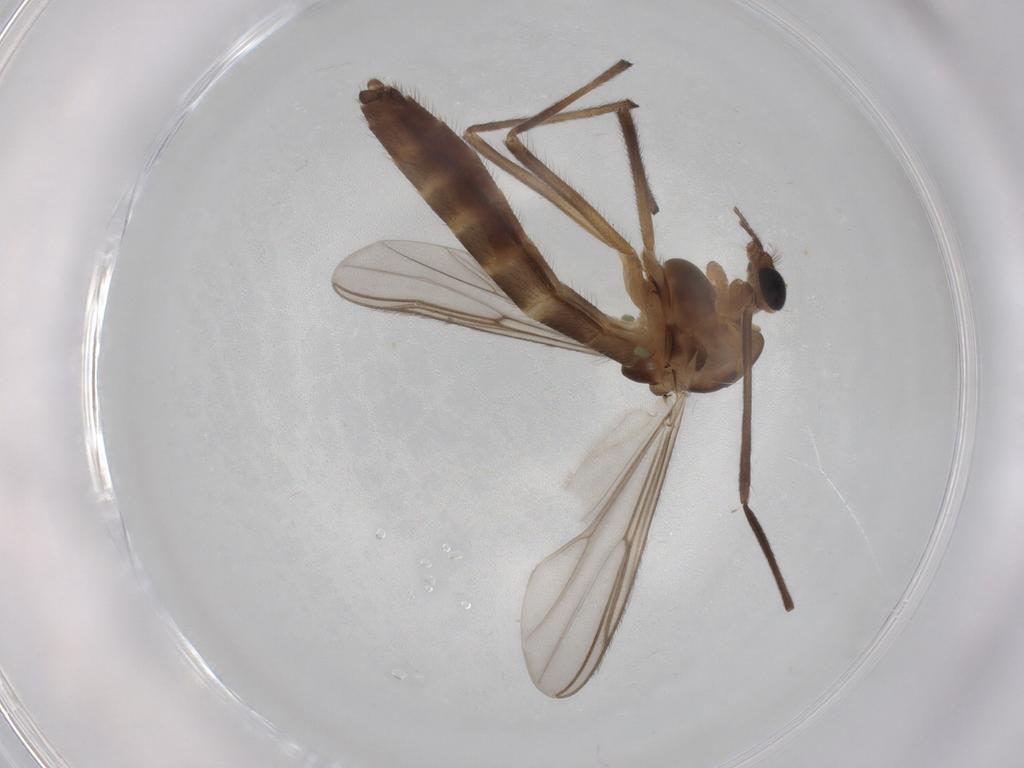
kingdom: Animalia
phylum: Arthropoda
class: Insecta
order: Diptera
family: Chironomidae
